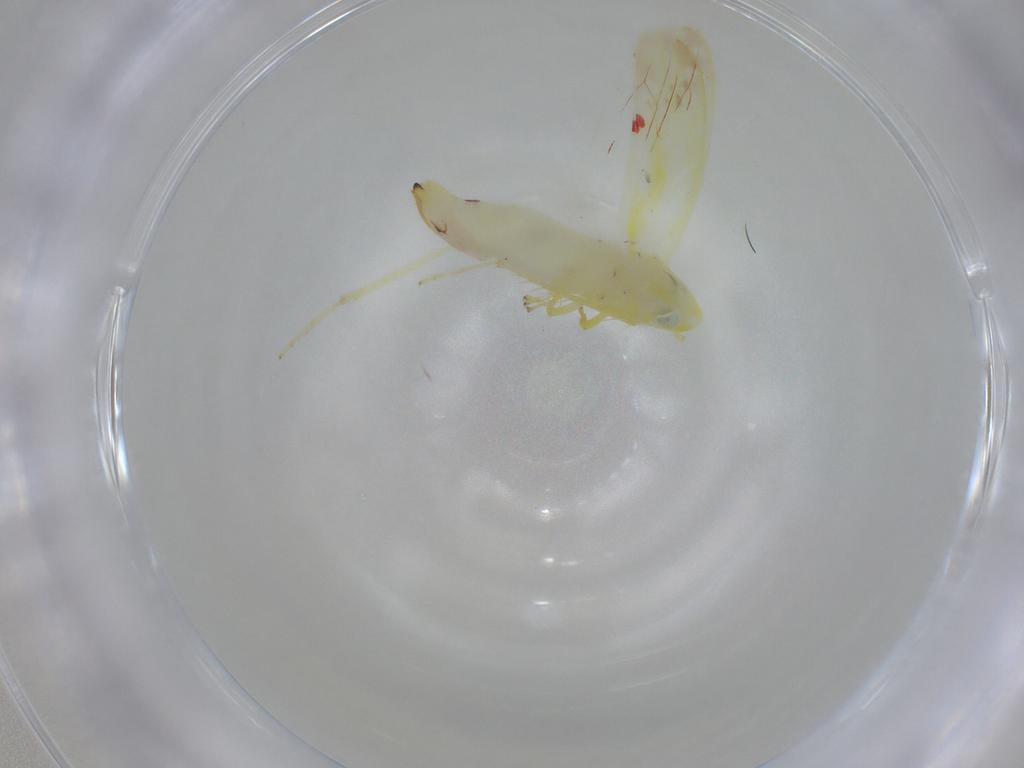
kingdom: Animalia
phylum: Arthropoda
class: Insecta
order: Hemiptera
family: Cicadellidae
